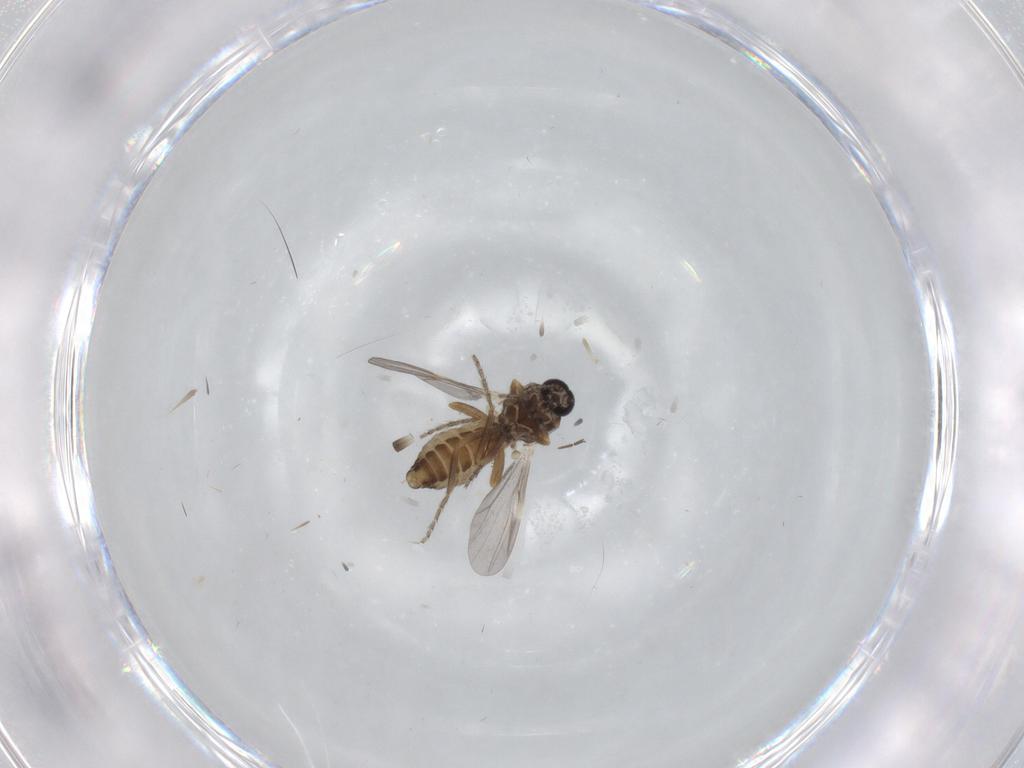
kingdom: Animalia
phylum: Arthropoda
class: Insecta
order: Diptera
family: Ceratopogonidae
